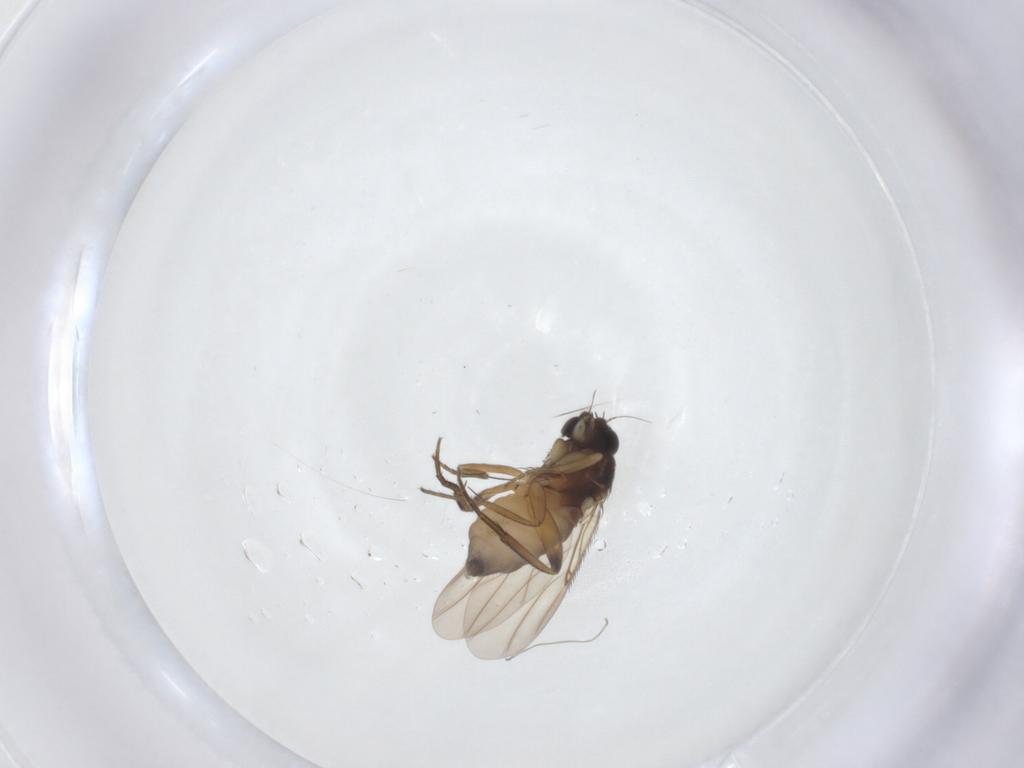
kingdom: Animalia
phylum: Arthropoda
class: Insecta
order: Diptera
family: Phoridae
